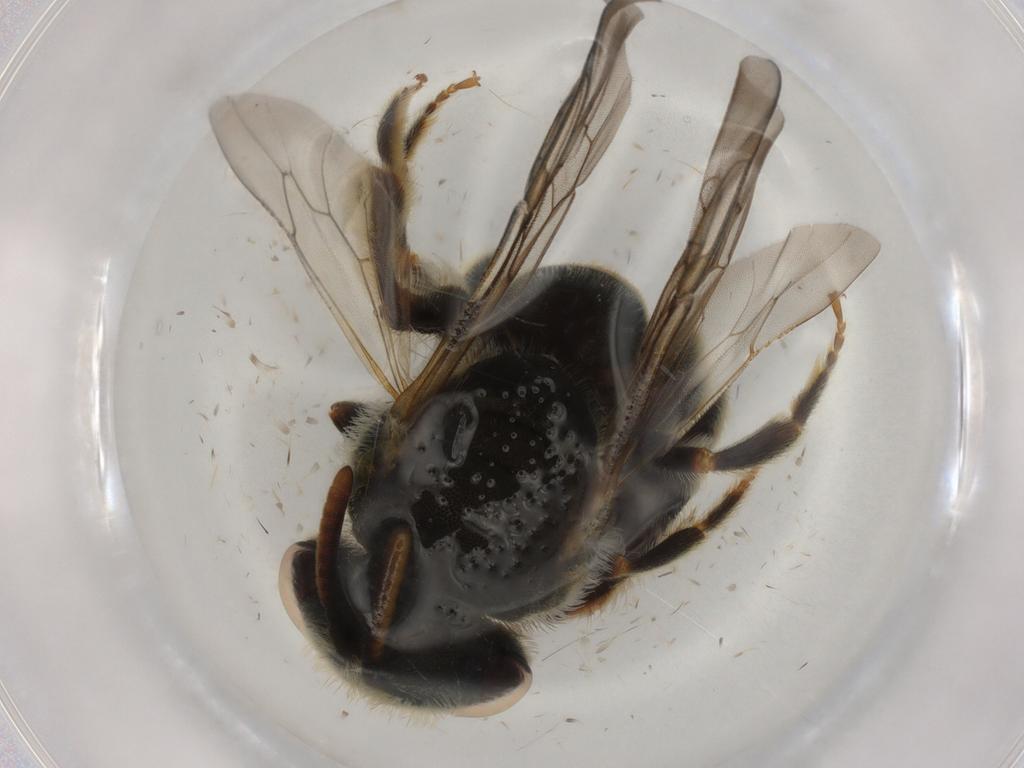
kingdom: Animalia
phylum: Arthropoda
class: Insecta
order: Hymenoptera
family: Halictidae
